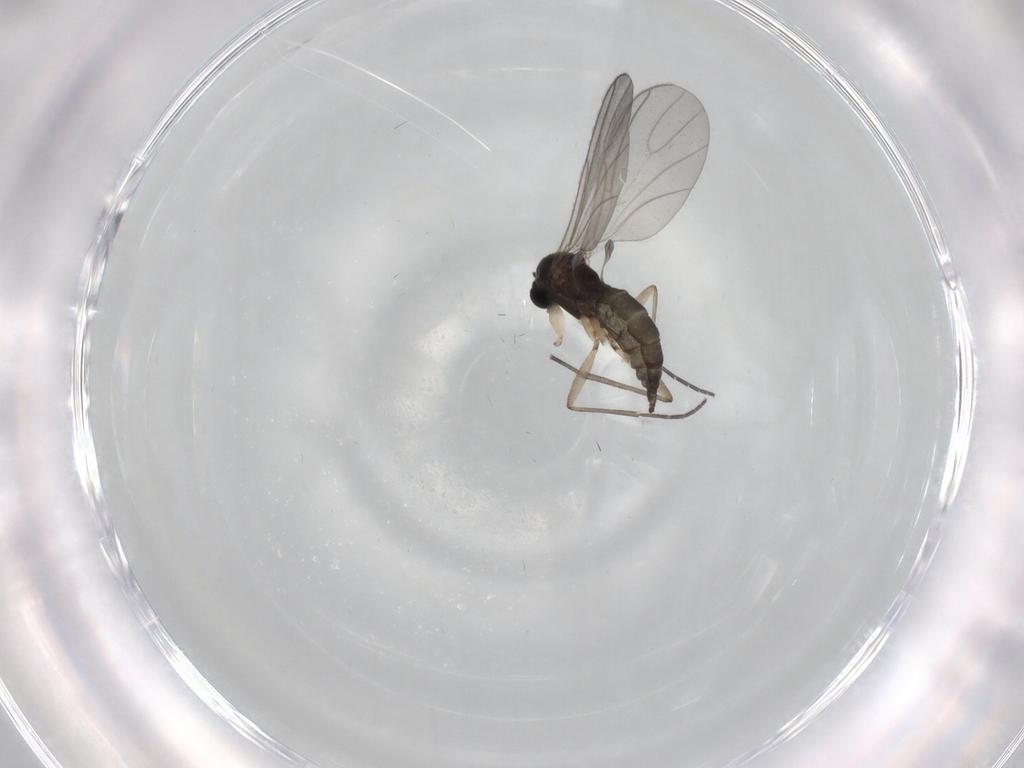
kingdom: Animalia
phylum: Arthropoda
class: Insecta
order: Diptera
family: Sciaridae
